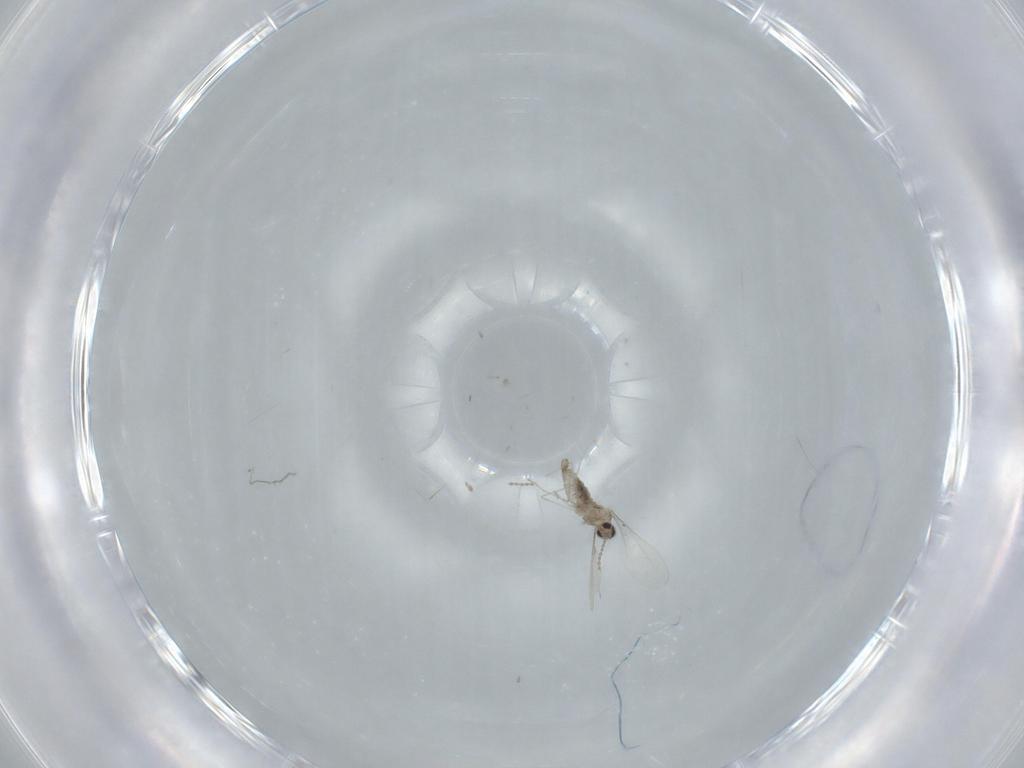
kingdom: Animalia
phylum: Arthropoda
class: Insecta
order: Diptera
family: Cecidomyiidae
